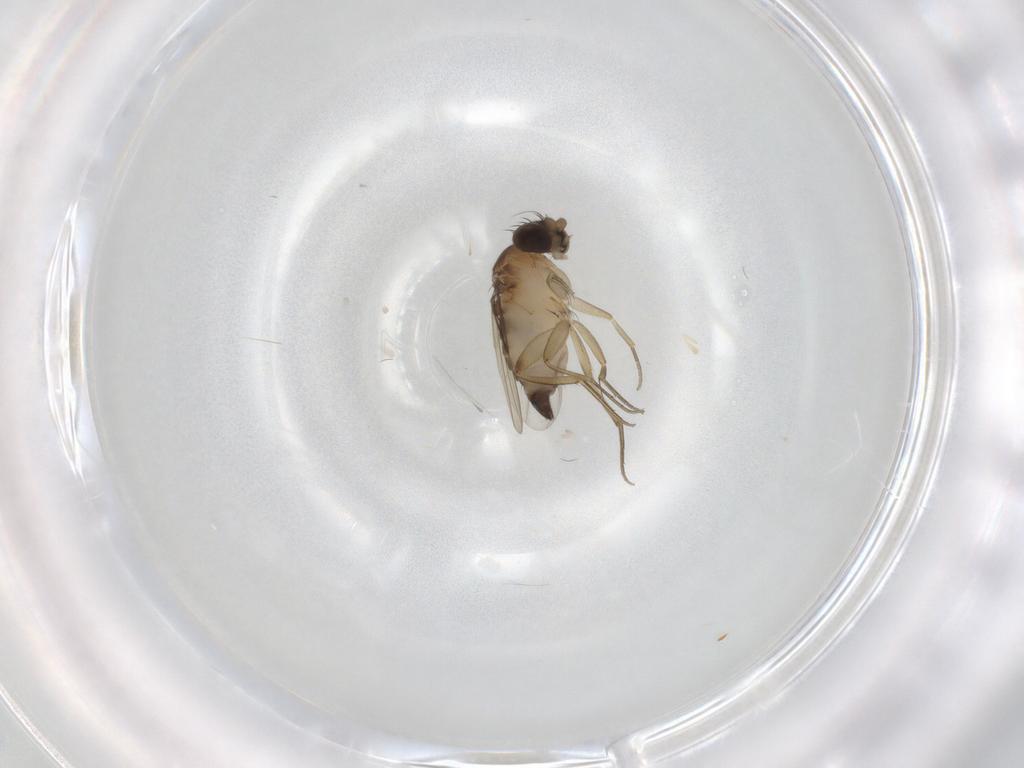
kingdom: Animalia
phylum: Arthropoda
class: Insecta
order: Diptera
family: Phoridae
